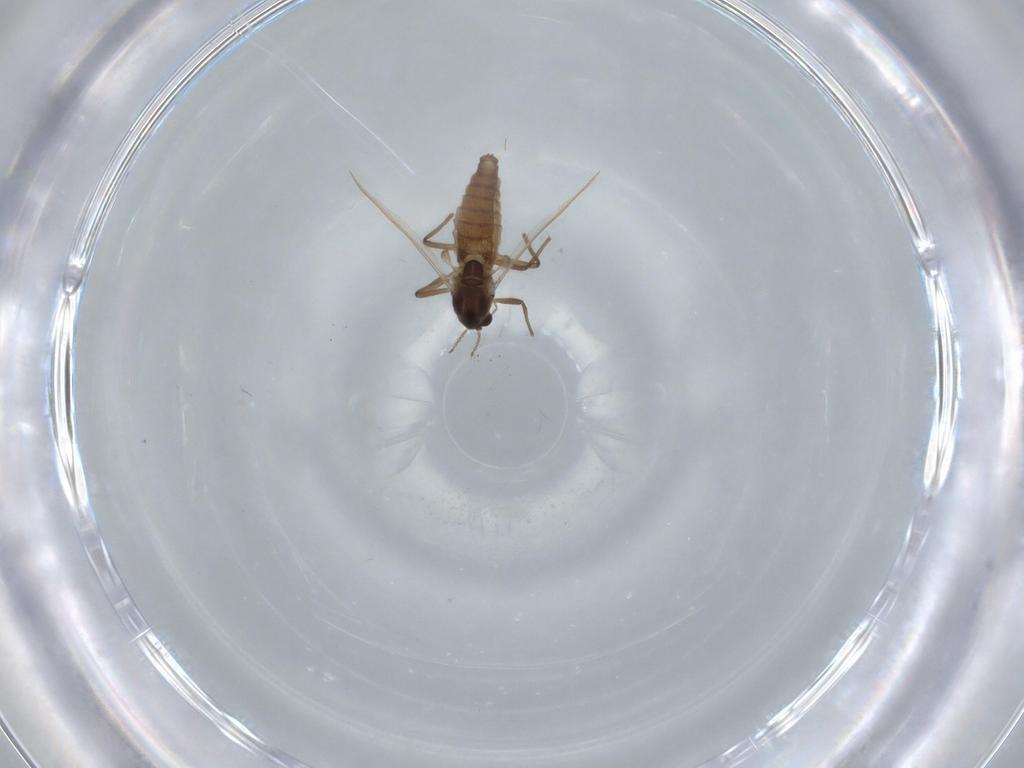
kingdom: Animalia
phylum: Arthropoda
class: Insecta
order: Diptera
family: Chironomidae
